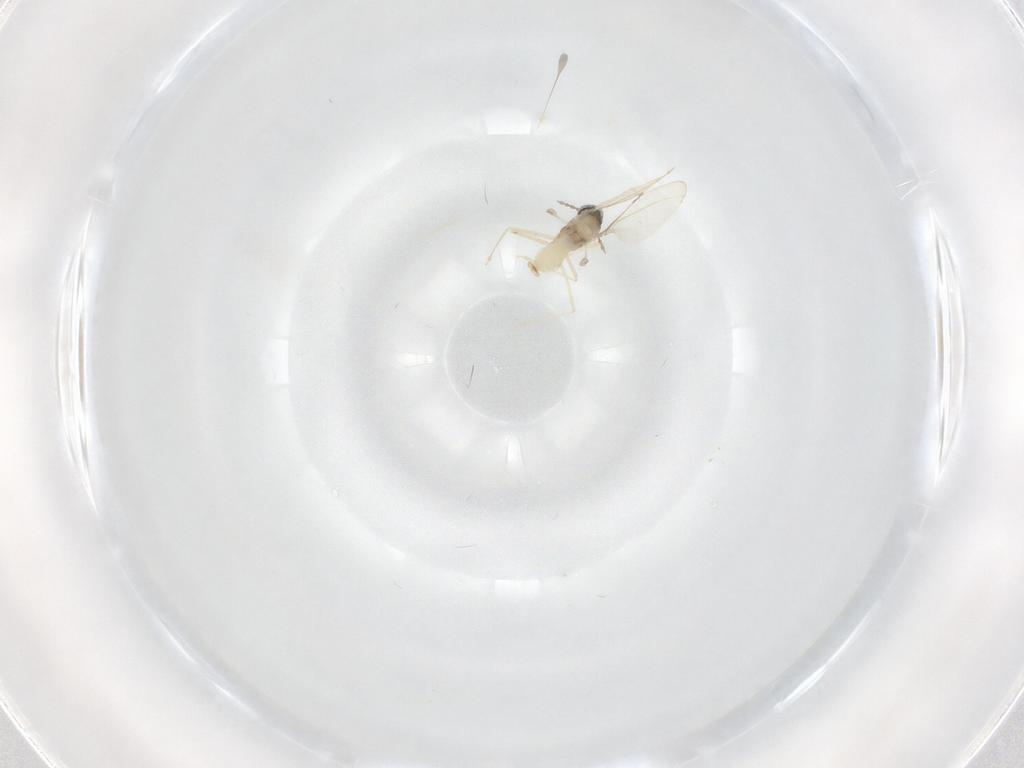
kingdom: Animalia
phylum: Arthropoda
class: Insecta
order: Diptera
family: Cecidomyiidae
